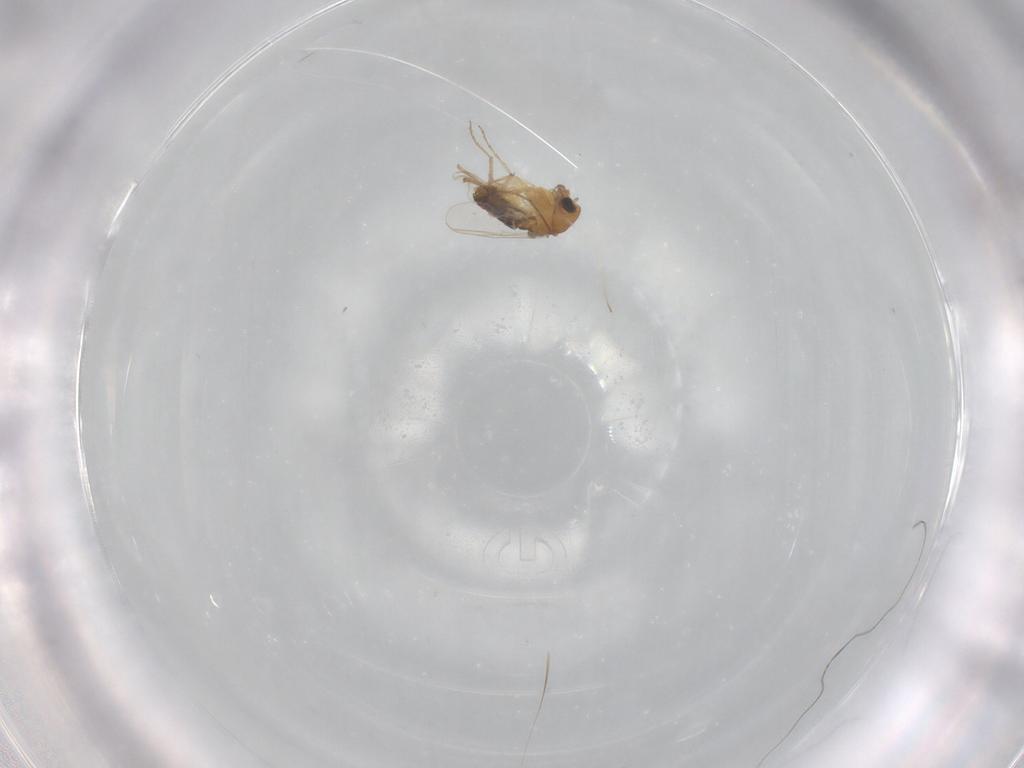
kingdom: Animalia
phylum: Arthropoda
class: Insecta
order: Diptera
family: Chironomidae
